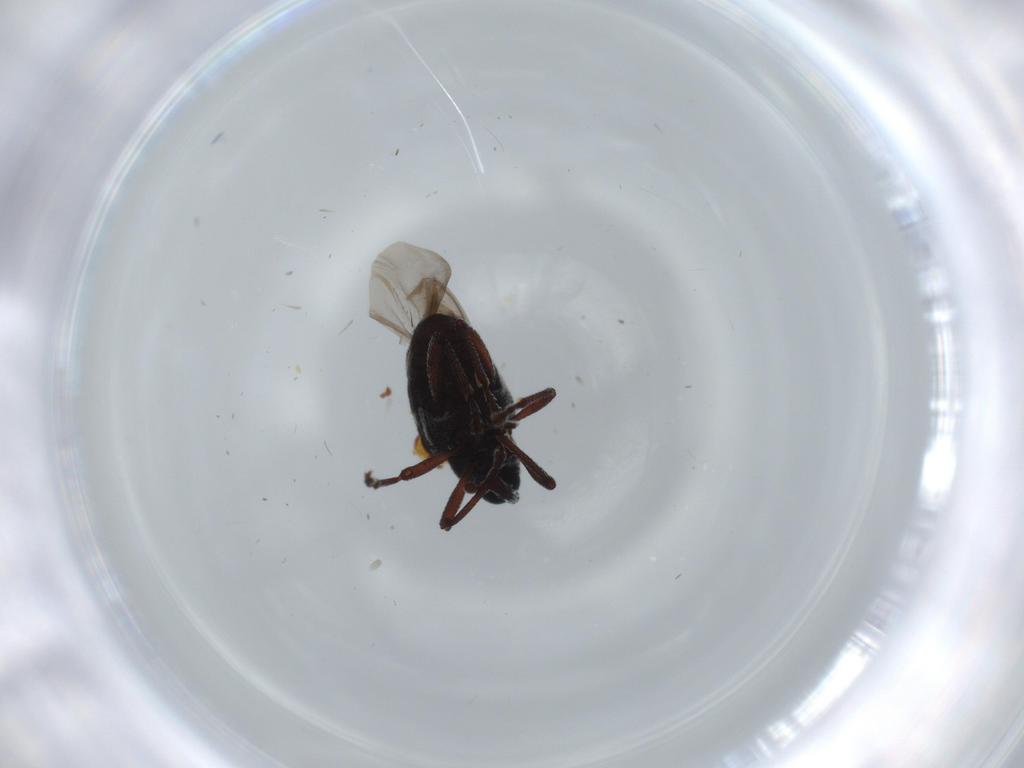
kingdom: Animalia
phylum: Arthropoda
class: Insecta
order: Coleoptera
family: Curculionidae
